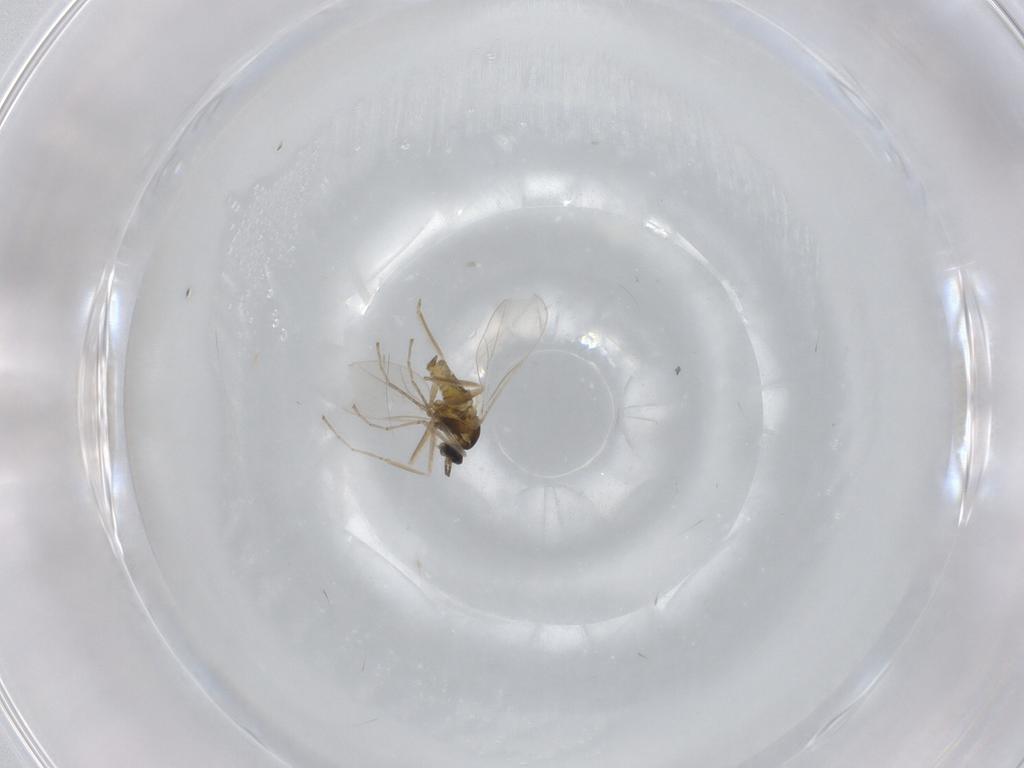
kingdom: Animalia
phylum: Arthropoda
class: Insecta
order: Diptera
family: Cecidomyiidae
